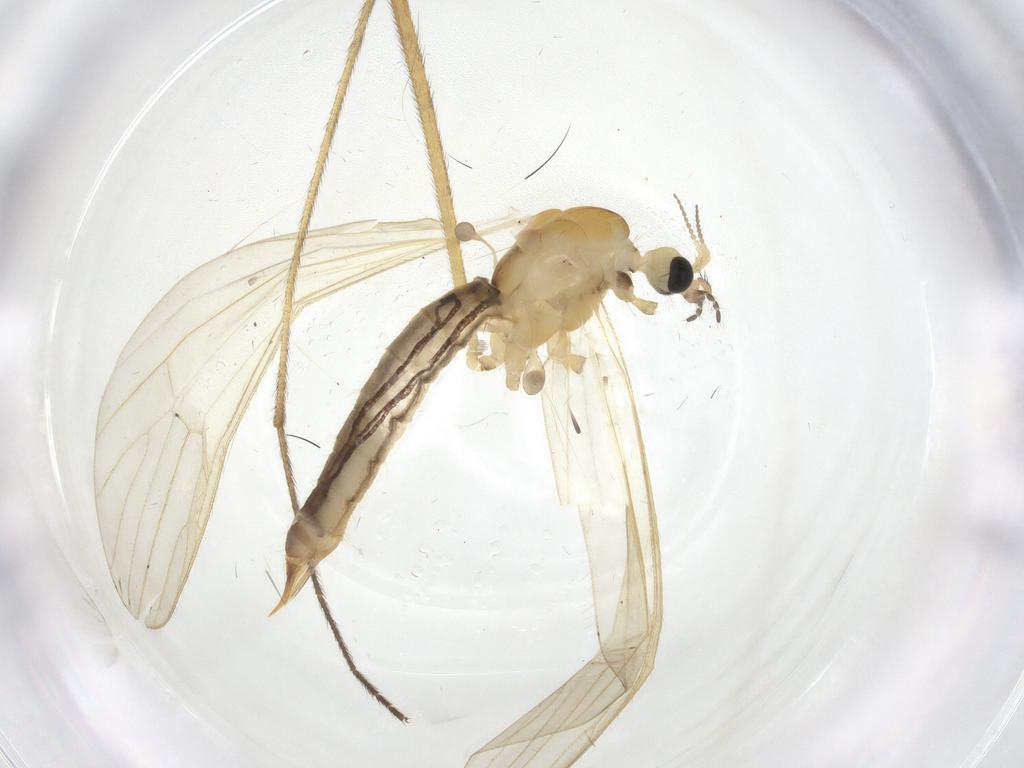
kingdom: Animalia
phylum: Arthropoda
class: Insecta
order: Diptera
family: Limoniidae
